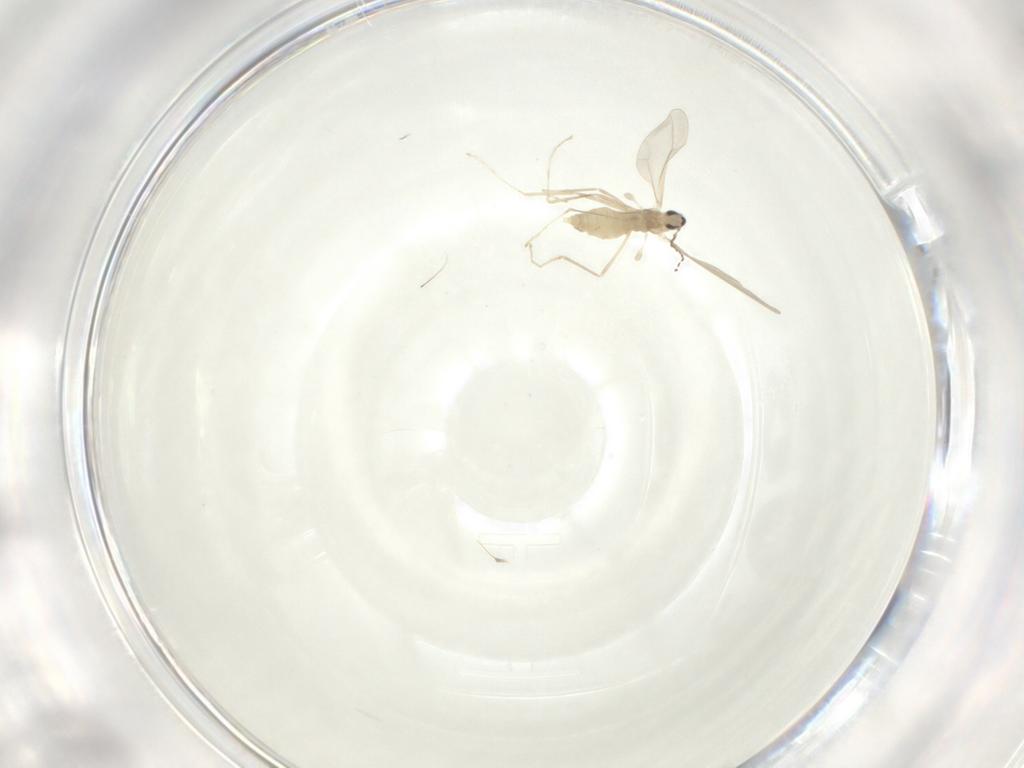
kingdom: Animalia
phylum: Arthropoda
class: Insecta
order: Diptera
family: Cecidomyiidae
